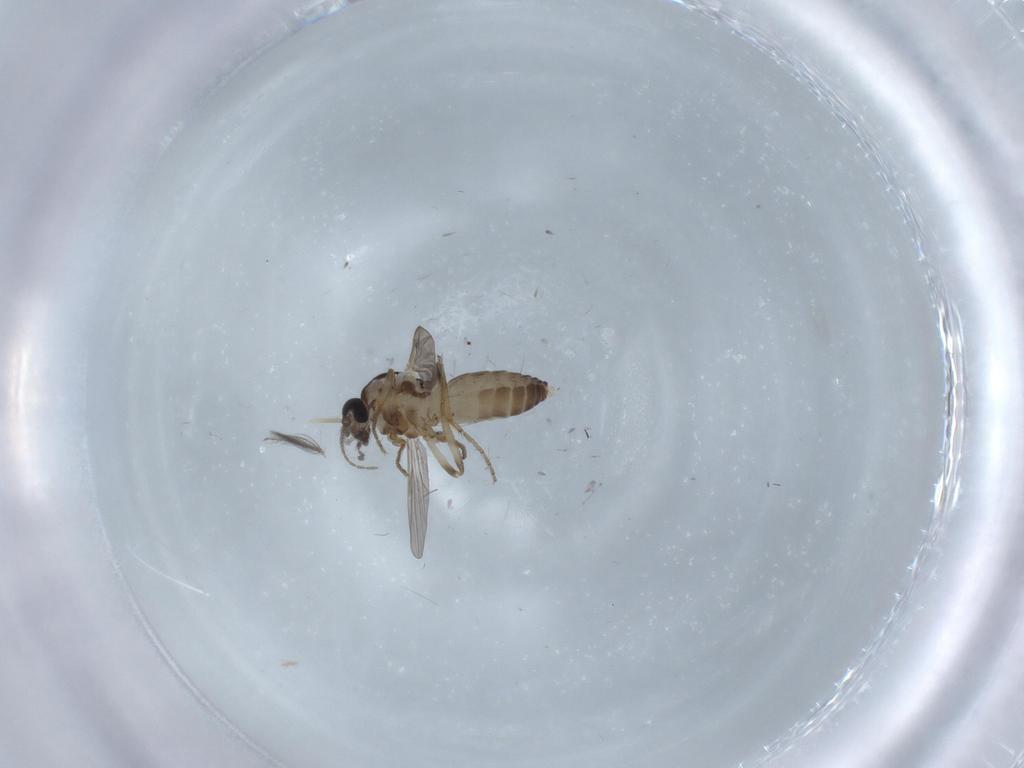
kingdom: Animalia
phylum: Arthropoda
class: Insecta
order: Diptera
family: Ceratopogonidae
